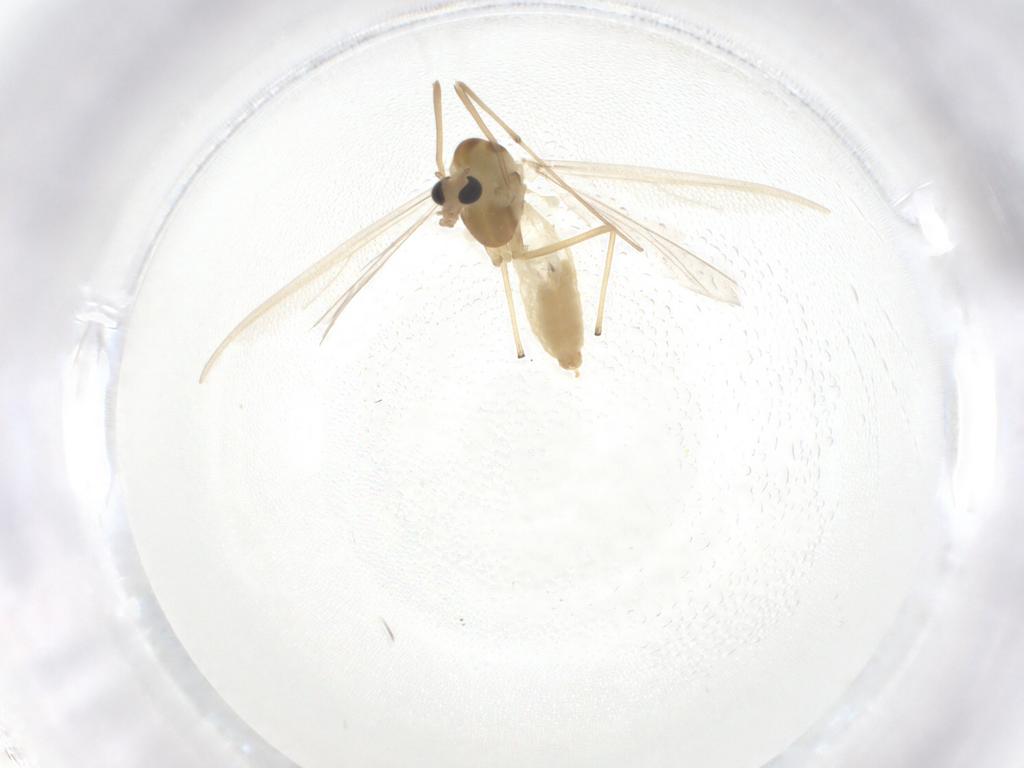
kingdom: Animalia
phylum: Arthropoda
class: Insecta
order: Diptera
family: Chironomidae
